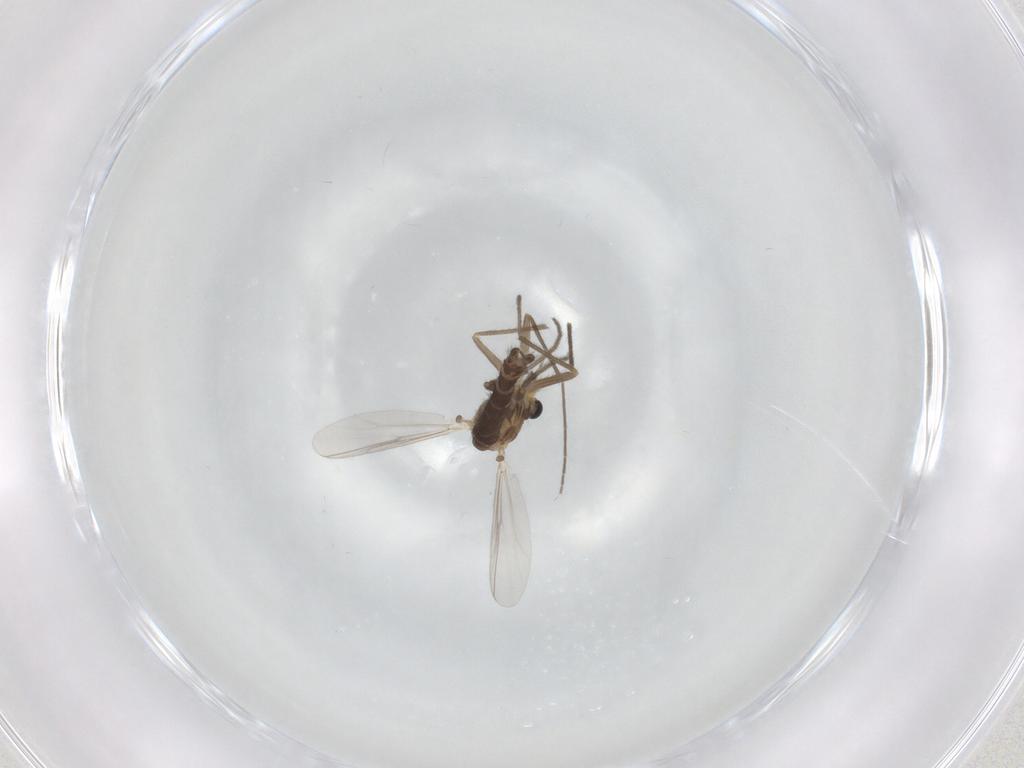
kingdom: Animalia
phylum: Arthropoda
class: Insecta
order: Diptera
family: Chironomidae
